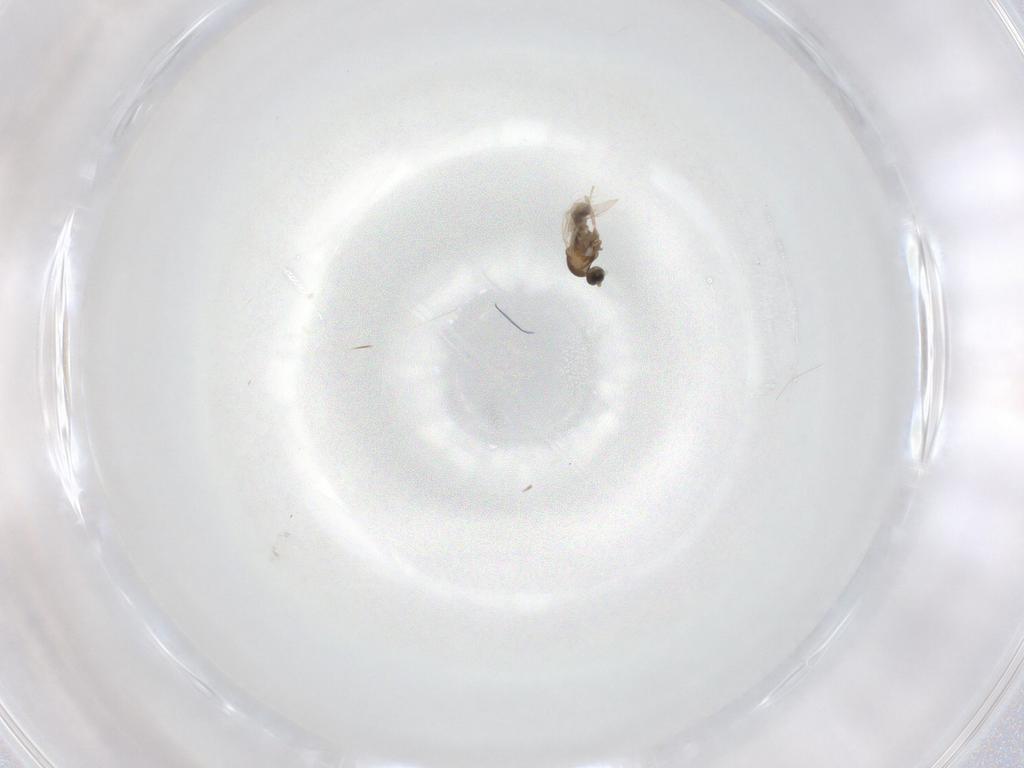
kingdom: Animalia
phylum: Arthropoda
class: Insecta
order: Diptera
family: Cecidomyiidae
